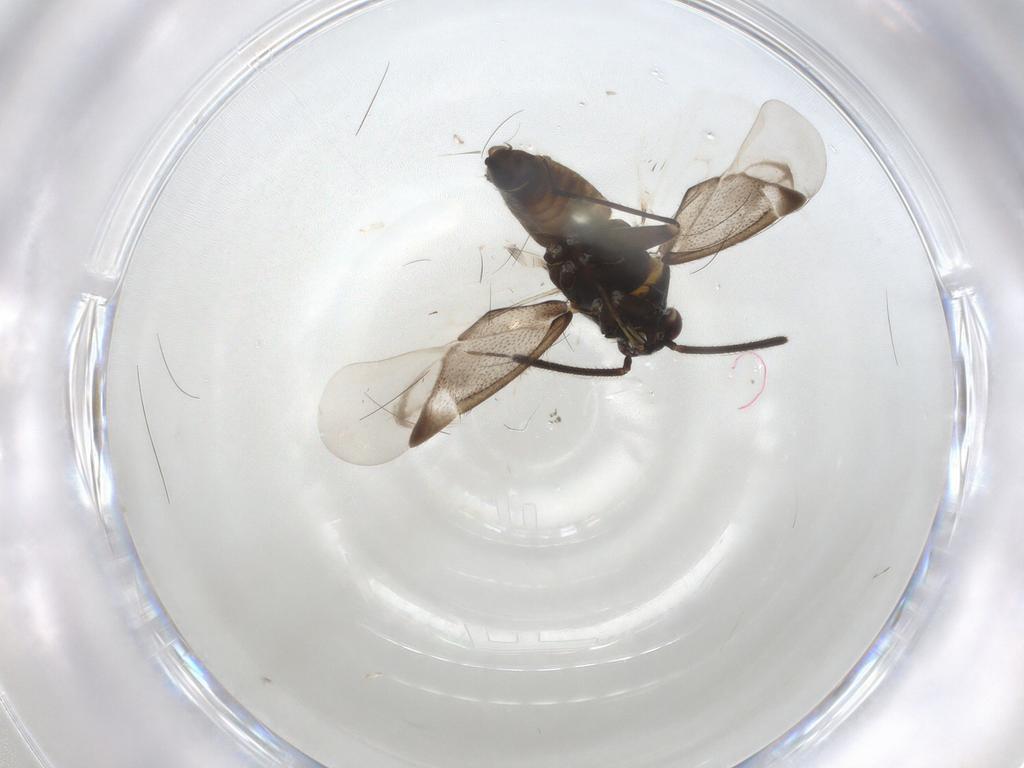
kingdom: Animalia
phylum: Arthropoda
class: Insecta
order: Hemiptera
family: Miridae
